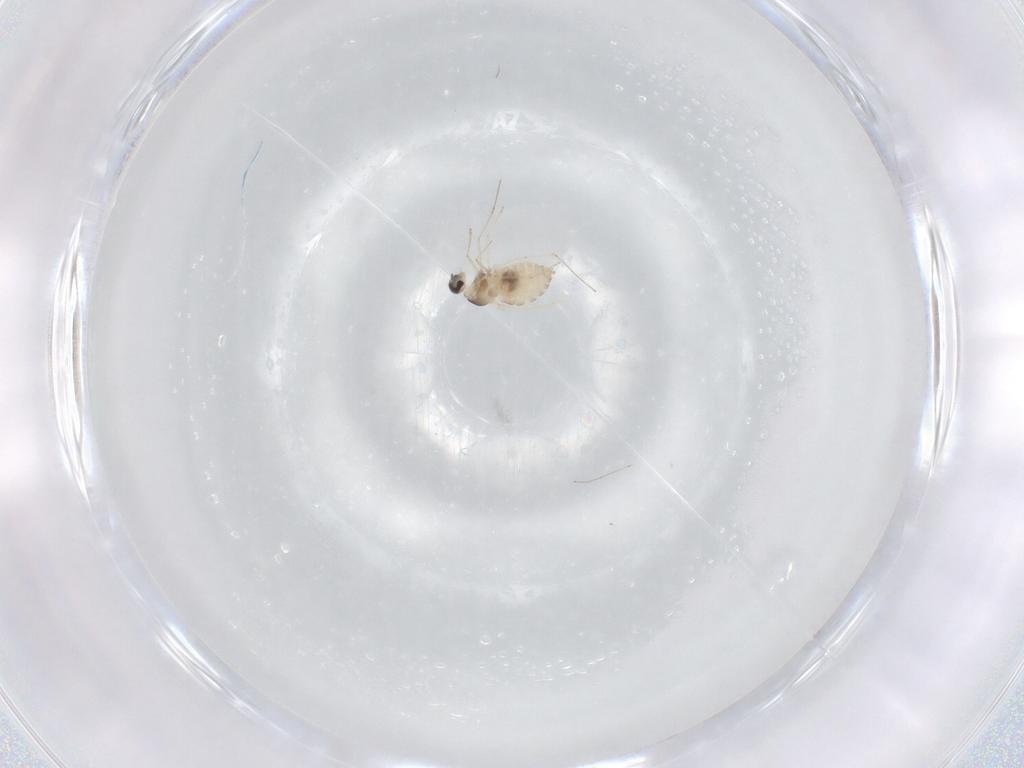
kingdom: Animalia
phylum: Arthropoda
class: Insecta
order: Diptera
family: Cecidomyiidae
